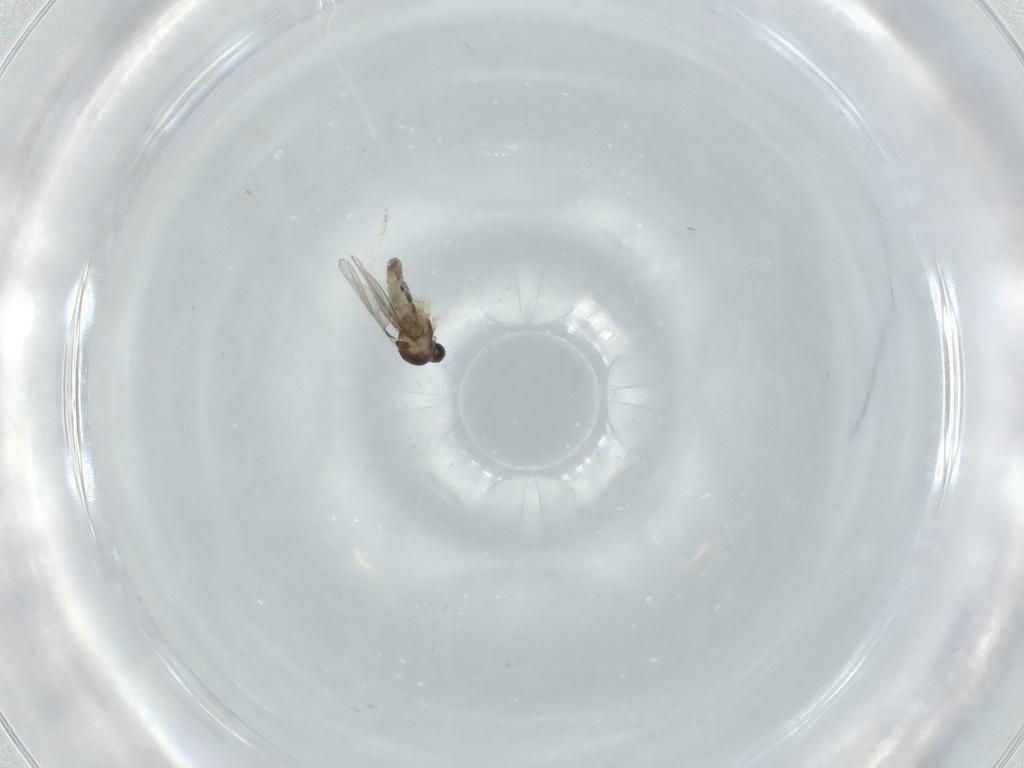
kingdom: Animalia
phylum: Arthropoda
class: Insecta
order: Diptera
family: Cecidomyiidae
